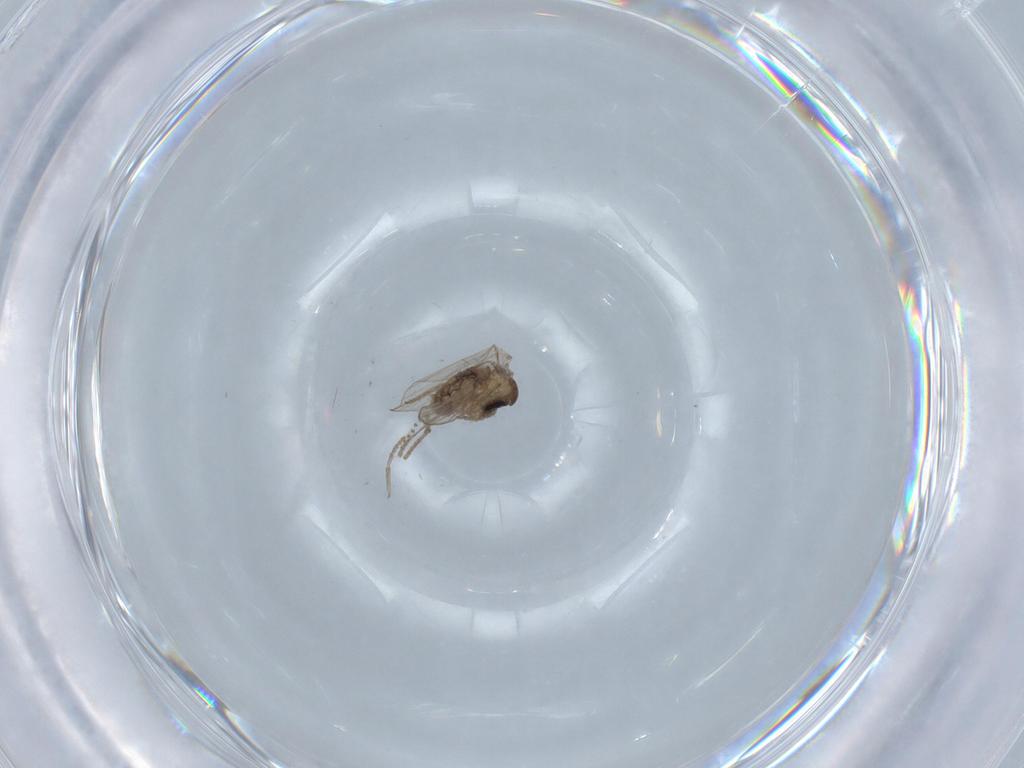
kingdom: Animalia
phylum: Arthropoda
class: Insecta
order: Diptera
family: Psychodidae
